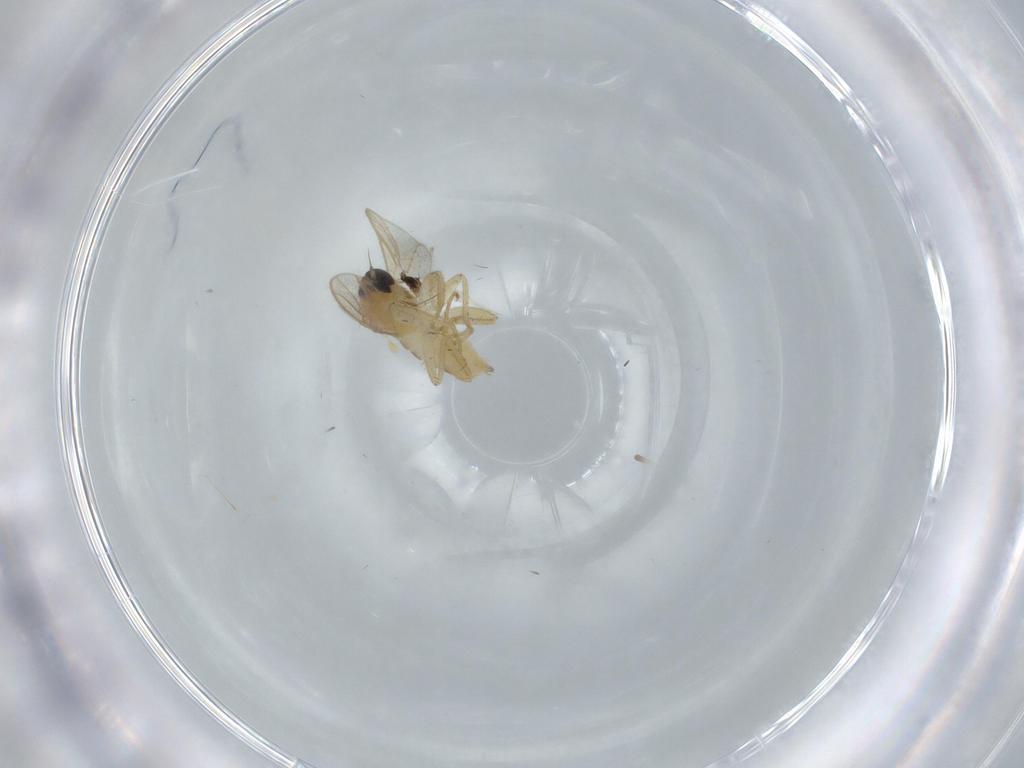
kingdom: Animalia
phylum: Arthropoda
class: Insecta
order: Diptera
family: Hybotidae
